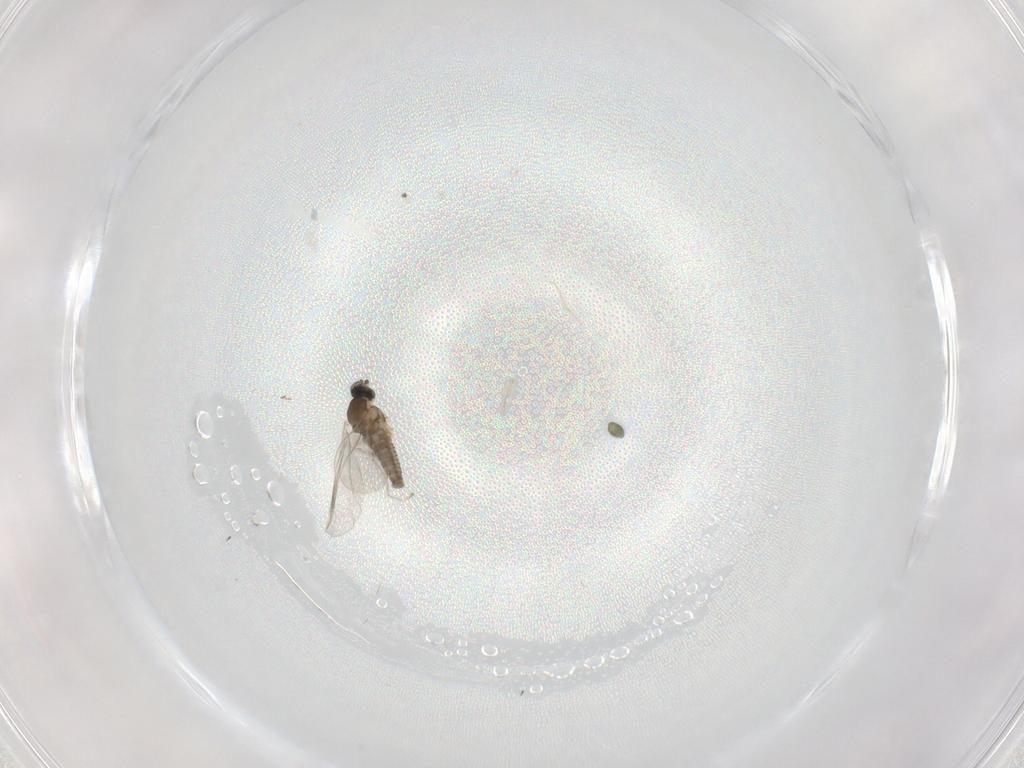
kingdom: Animalia
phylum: Arthropoda
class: Insecta
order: Diptera
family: Cecidomyiidae
